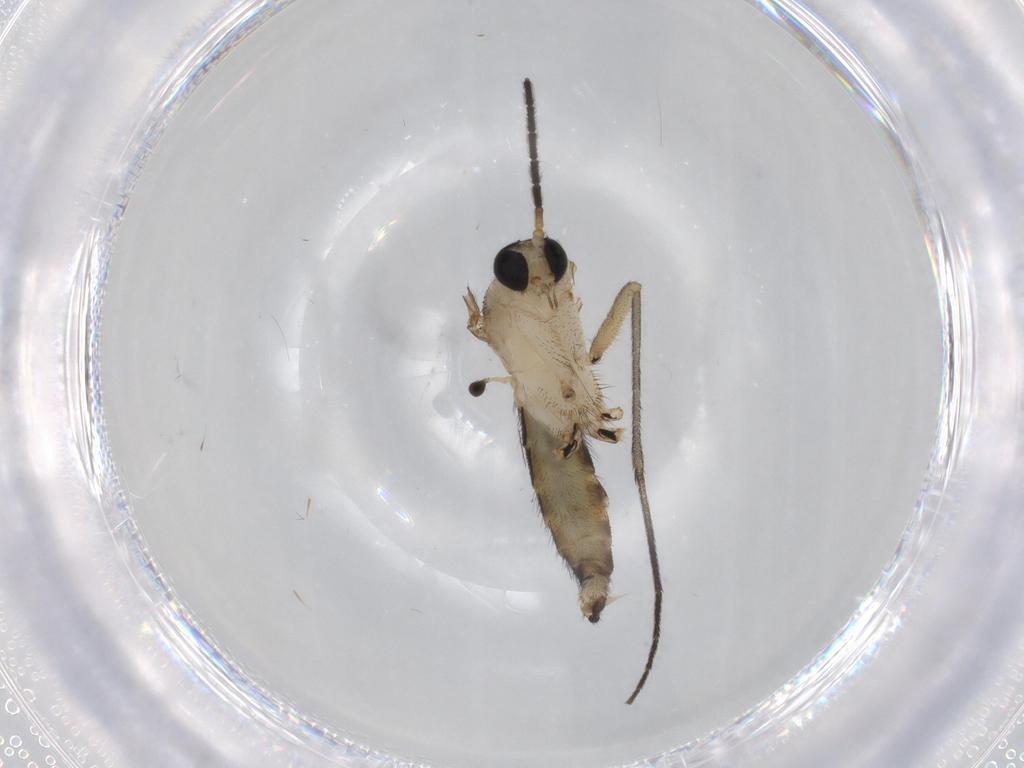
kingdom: Animalia
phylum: Arthropoda
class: Insecta
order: Diptera
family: Sciaridae
